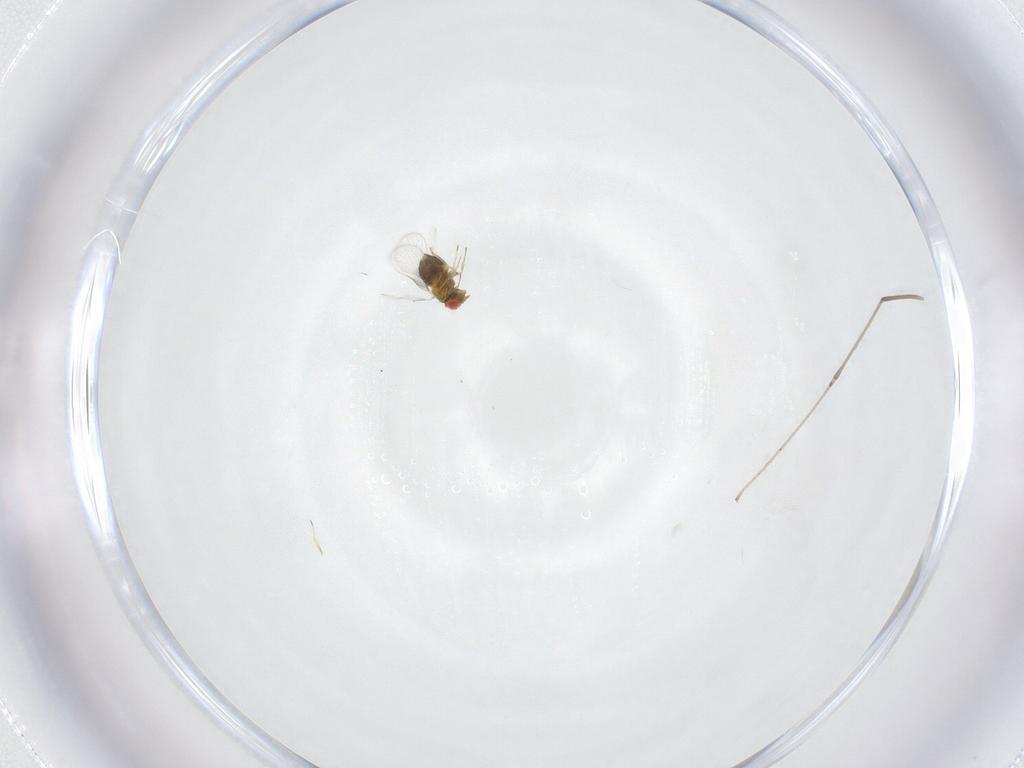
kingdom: Animalia
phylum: Arthropoda
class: Insecta
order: Hymenoptera
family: Trichogrammatidae
